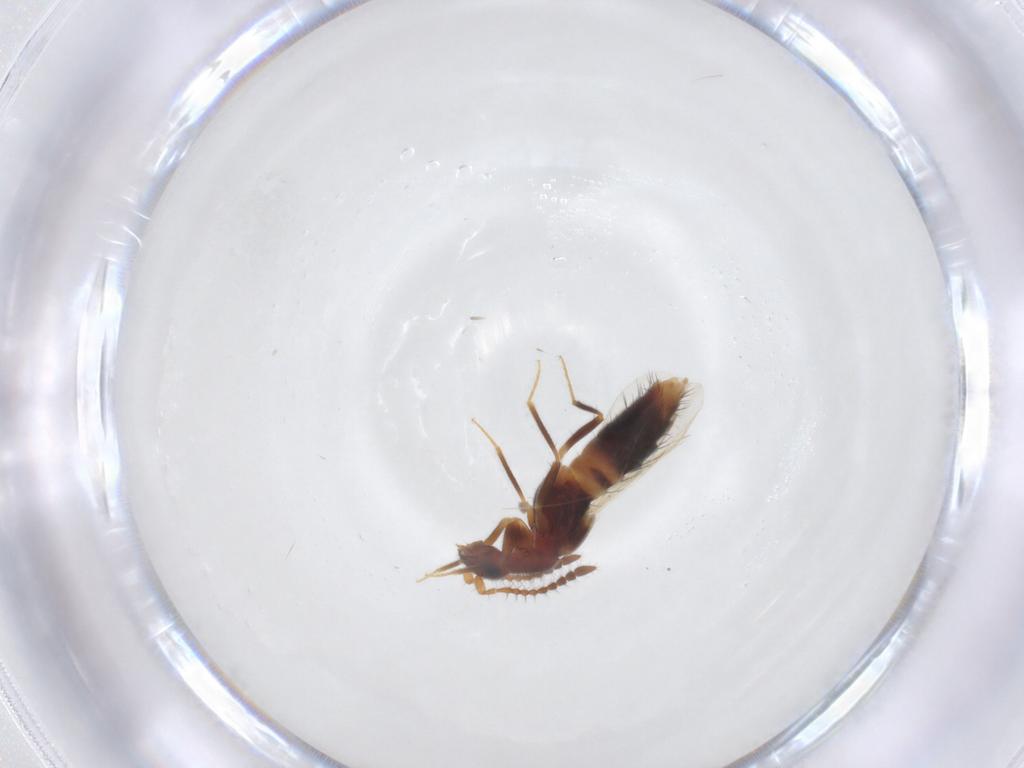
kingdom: Animalia
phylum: Arthropoda
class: Insecta
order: Coleoptera
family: Staphylinidae
